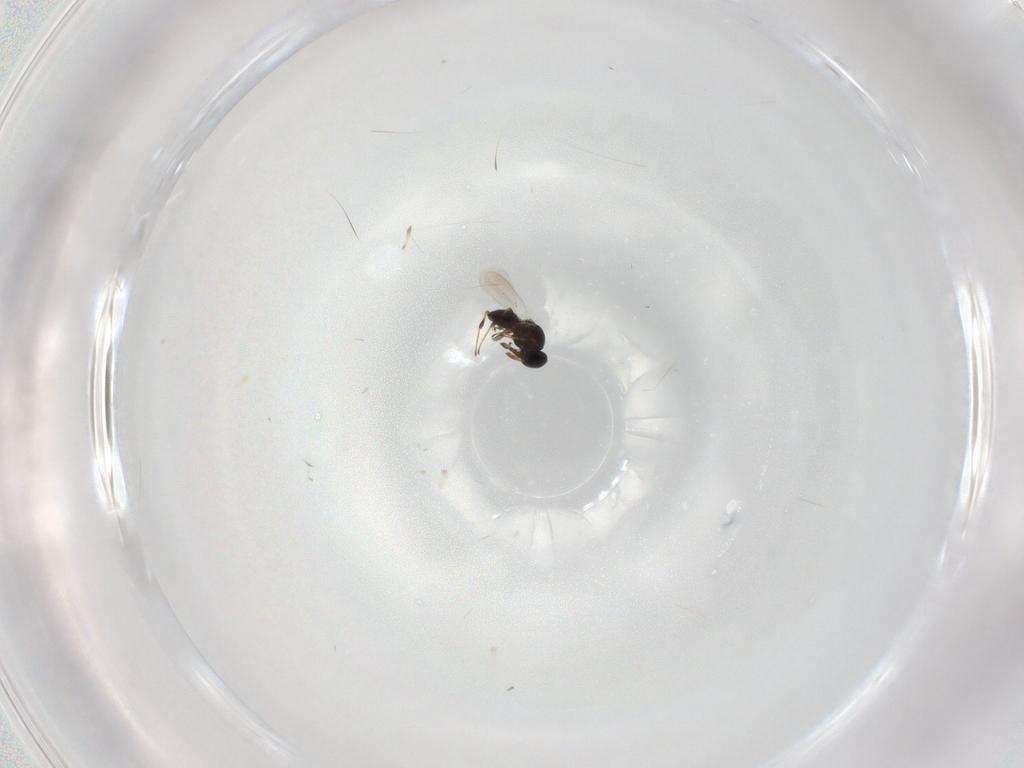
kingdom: Animalia
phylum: Arthropoda
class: Insecta
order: Hymenoptera
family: Platygastridae
